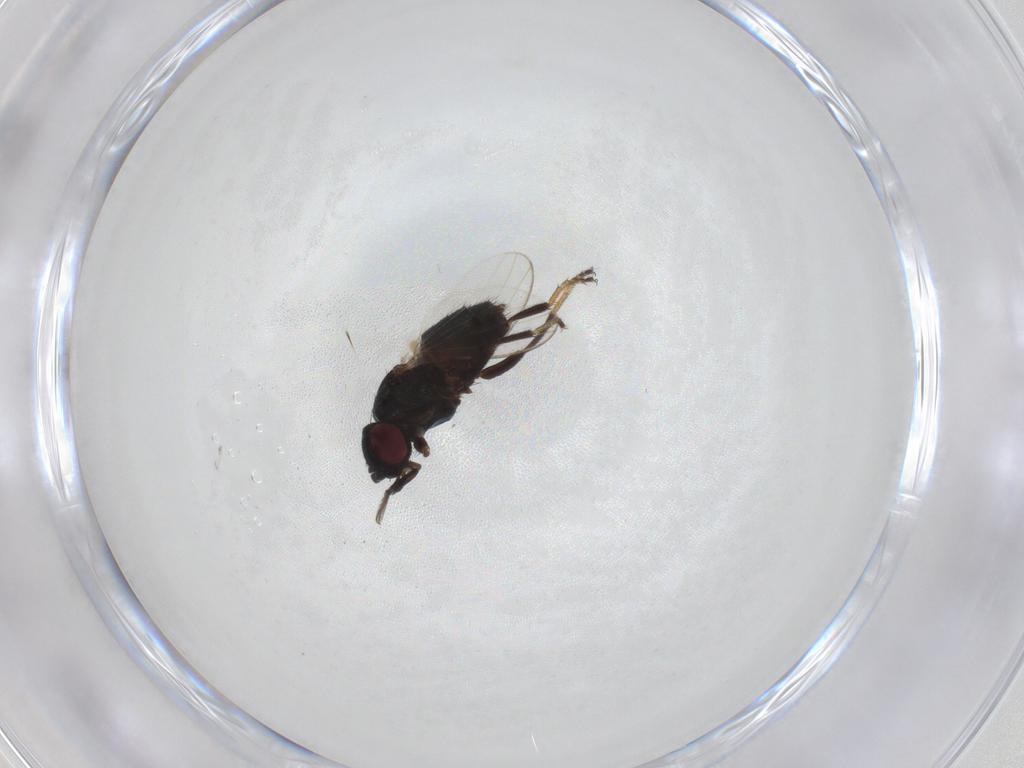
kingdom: Animalia
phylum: Arthropoda
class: Insecta
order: Diptera
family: Milichiidae
